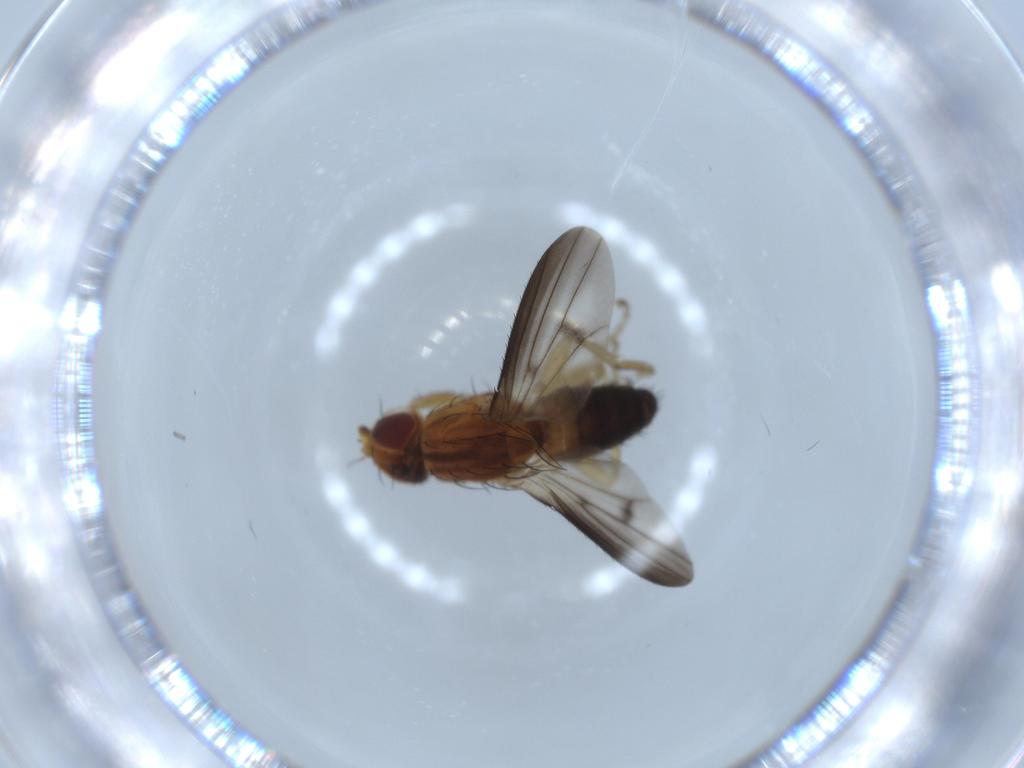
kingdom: Animalia
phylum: Arthropoda
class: Insecta
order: Diptera
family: Heleomyzidae
